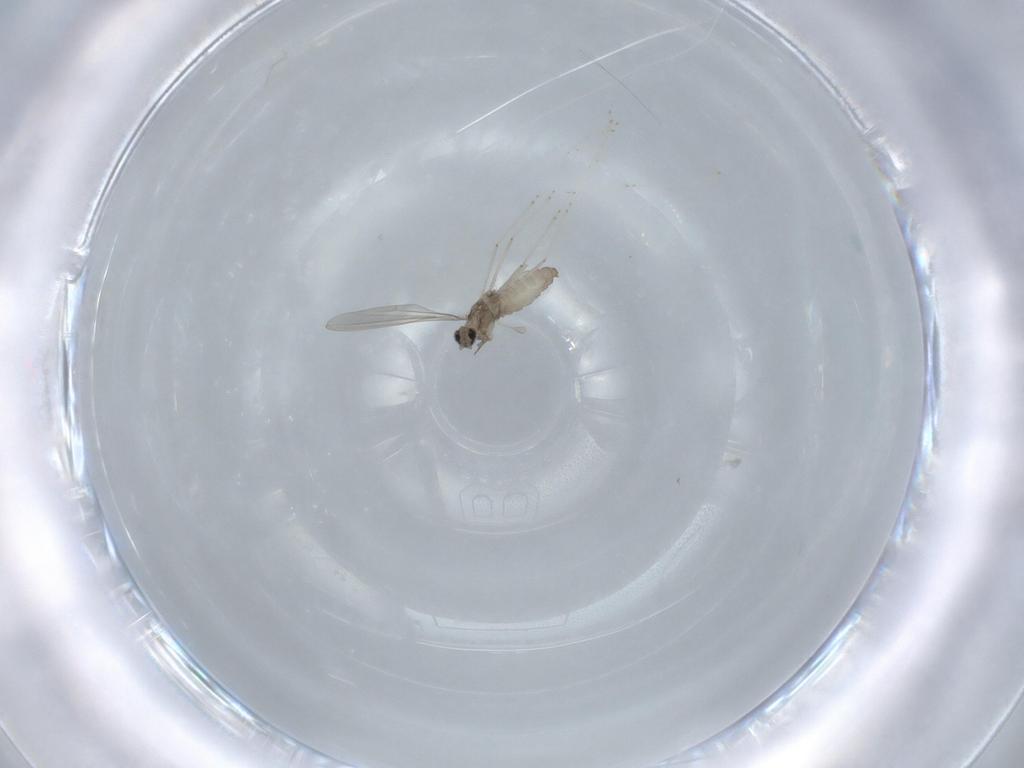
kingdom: Animalia
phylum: Arthropoda
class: Insecta
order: Diptera
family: Cecidomyiidae
